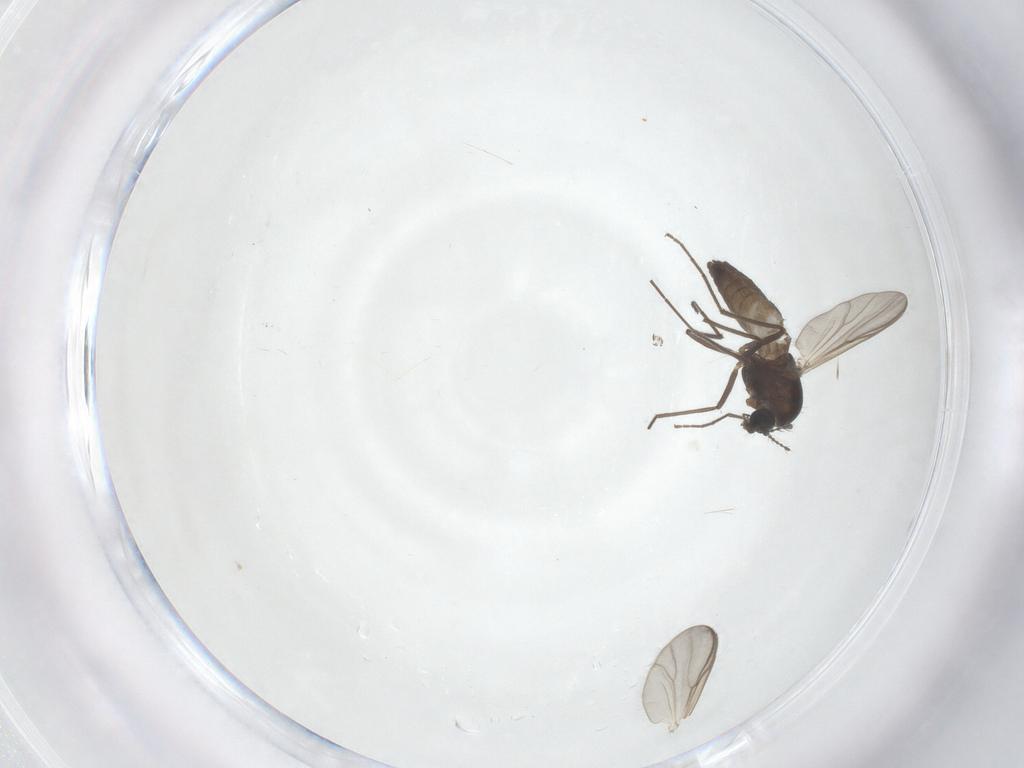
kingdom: Animalia
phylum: Arthropoda
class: Insecta
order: Diptera
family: Chironomidae
